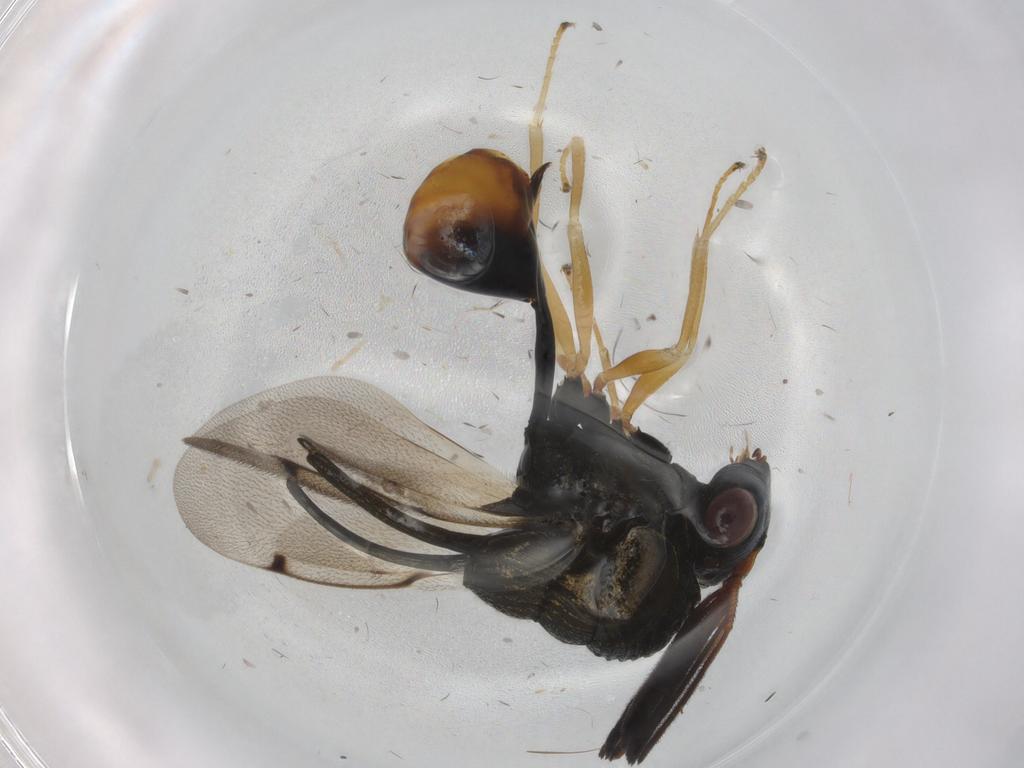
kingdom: Animalia
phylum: Arthropoda
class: Insecta
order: Hymenoptera
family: Formicidae
